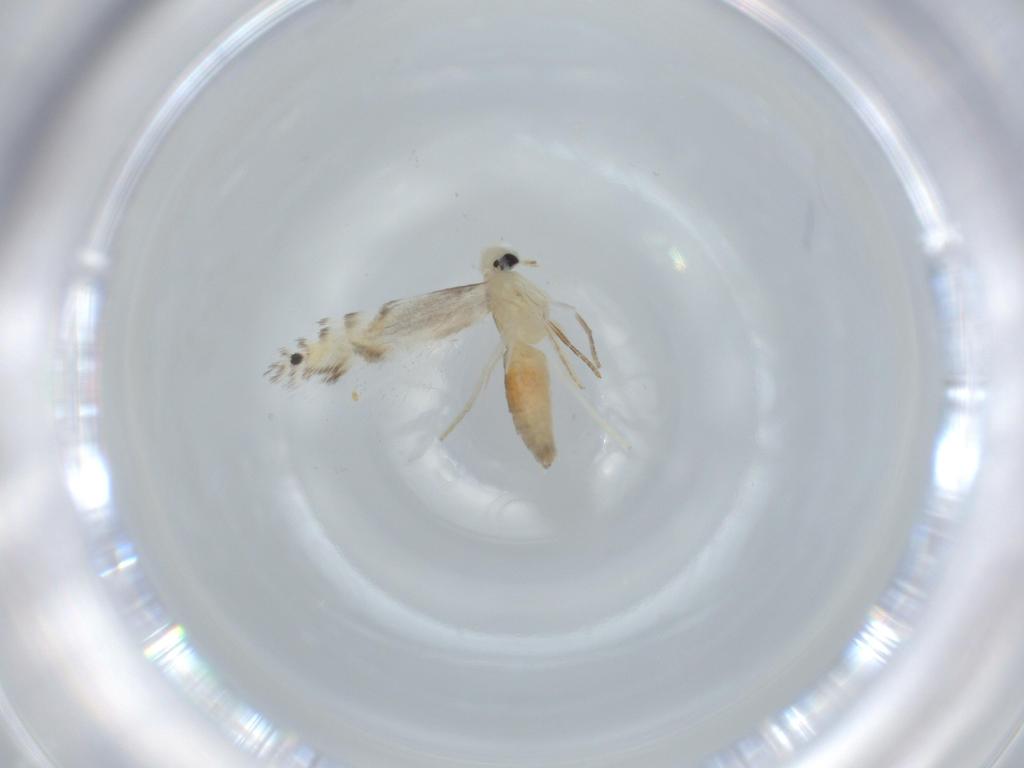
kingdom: Animalia
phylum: Arthropoda
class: Insecta
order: Lepidoptera
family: Gracillariidae
